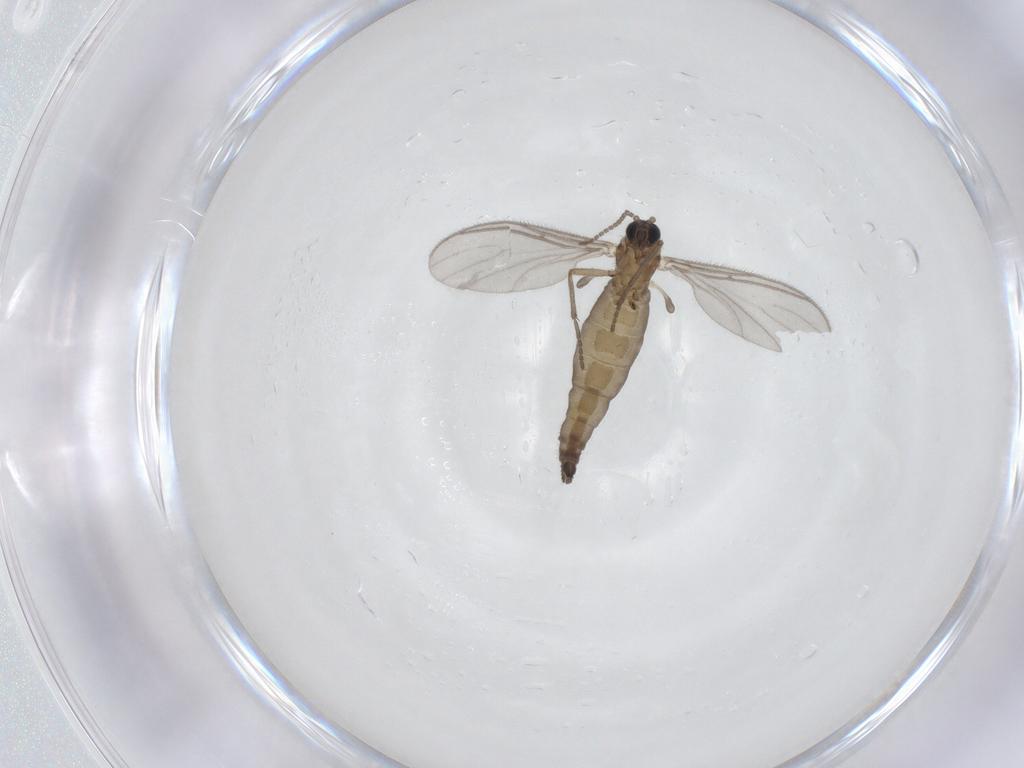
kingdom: Animalia
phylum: Arthropoda
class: Insecta
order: Diptera
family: Sciaridae
